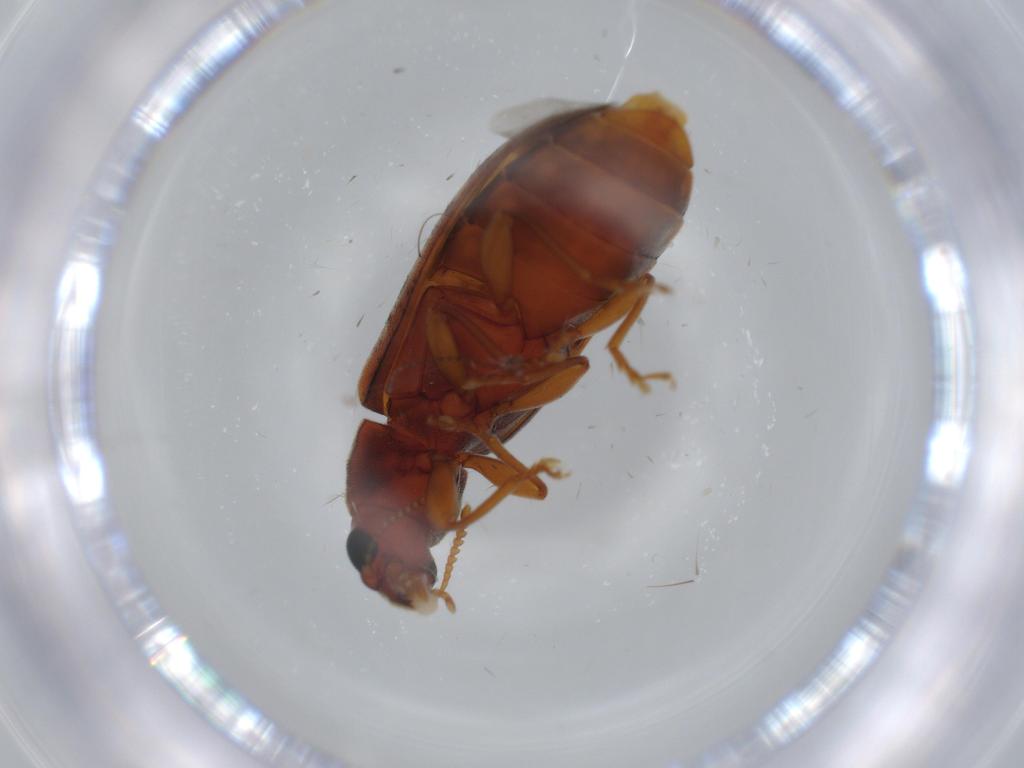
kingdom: Animalia
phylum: Arthropoda
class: Insecta
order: Coleoptera
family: Mycteridae
